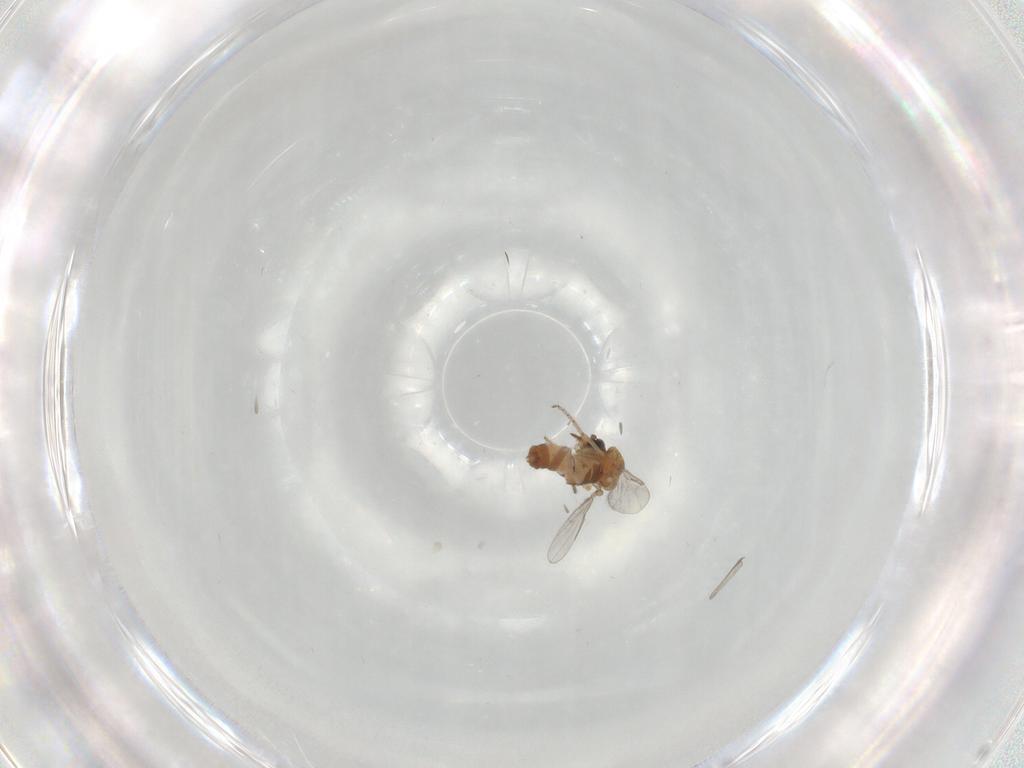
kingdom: Animalia
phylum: Arthropoda
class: Insecta
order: Diptera
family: Ceratopogonidae
